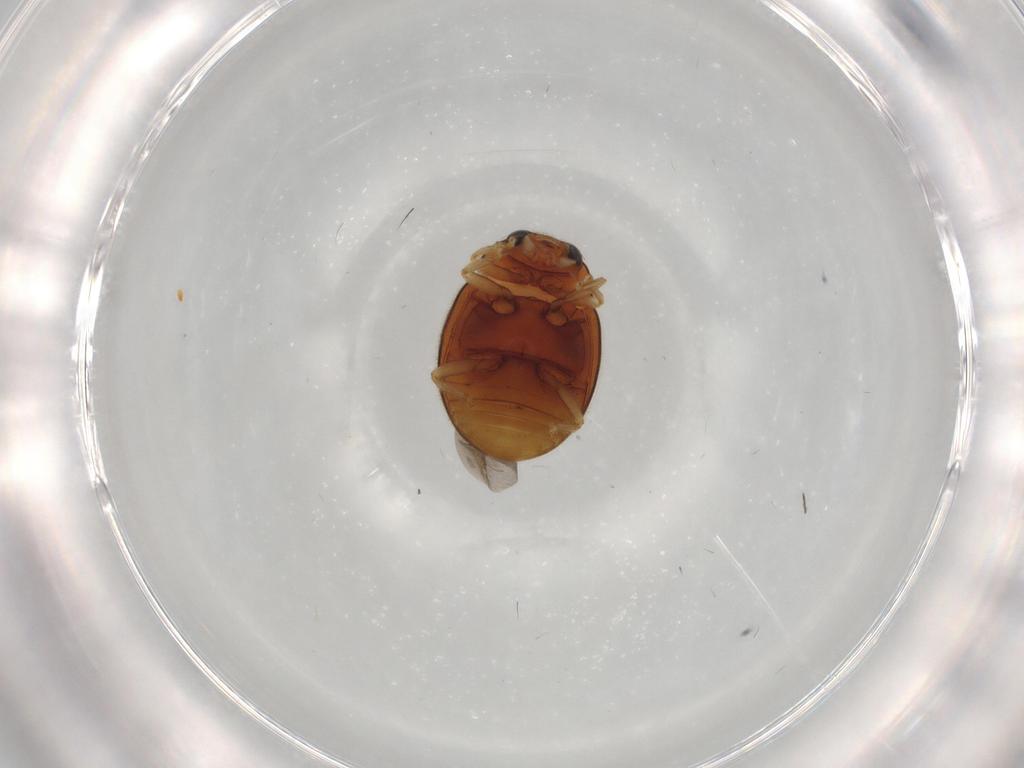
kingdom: Animalia
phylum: Arthropoda
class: Insecta
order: Coleoptera
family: Coccinellidae
